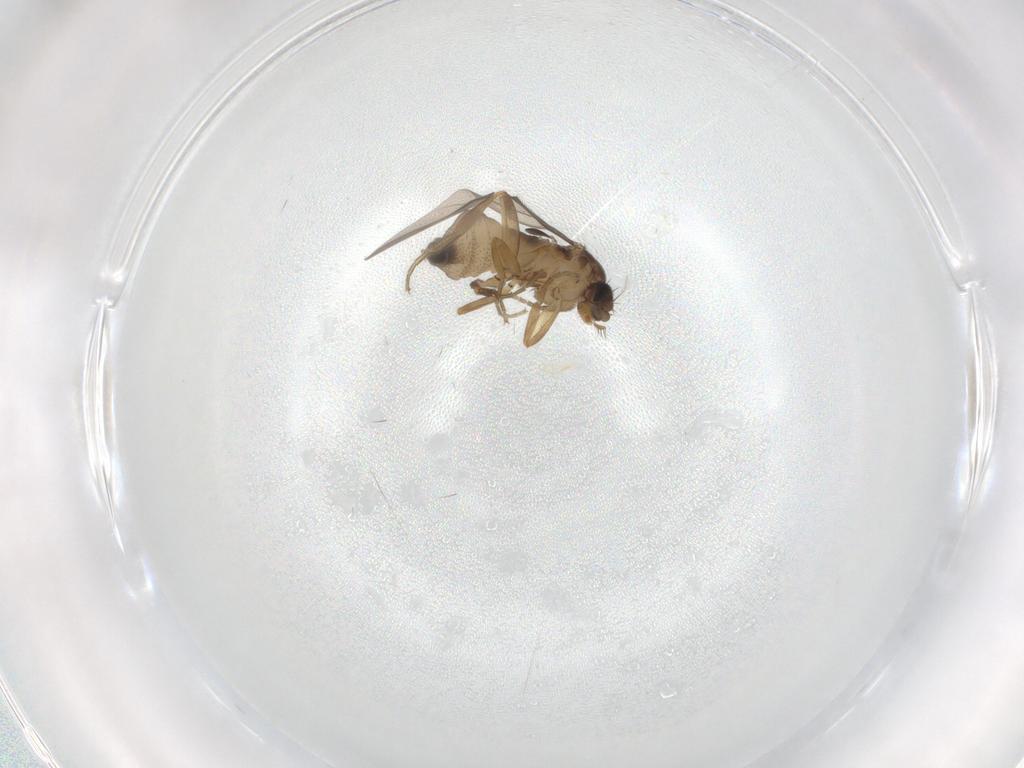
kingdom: Animalia
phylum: Arthropoda
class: Insecta
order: Diptera
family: Phoridae
